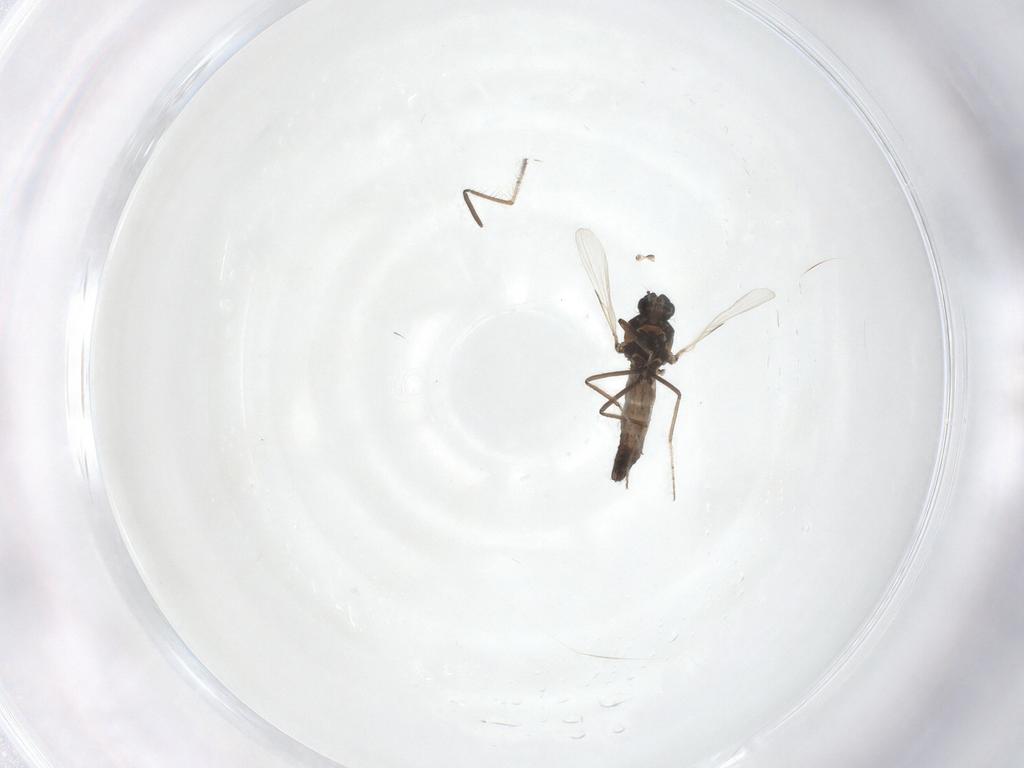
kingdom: Animalia
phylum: Arthropoda
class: Insecta
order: Diptera
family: Ceratopogonidae
